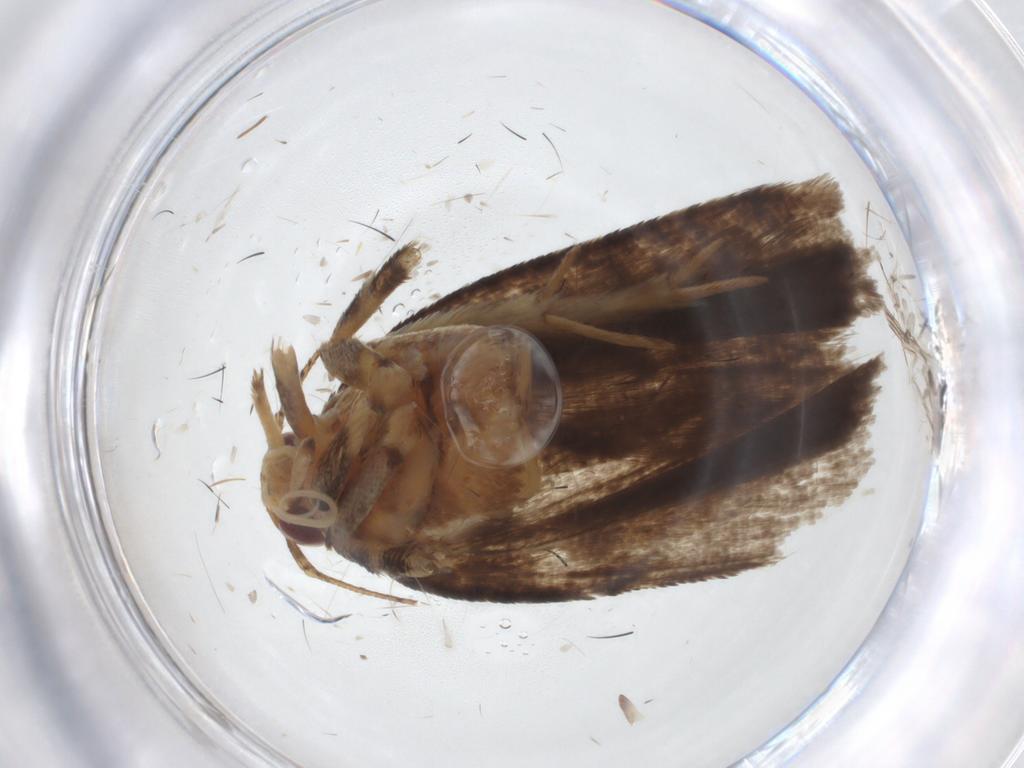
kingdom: Animalia
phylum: Arthropoda
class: Insecta
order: Lepidoptera
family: Gelechiidae
